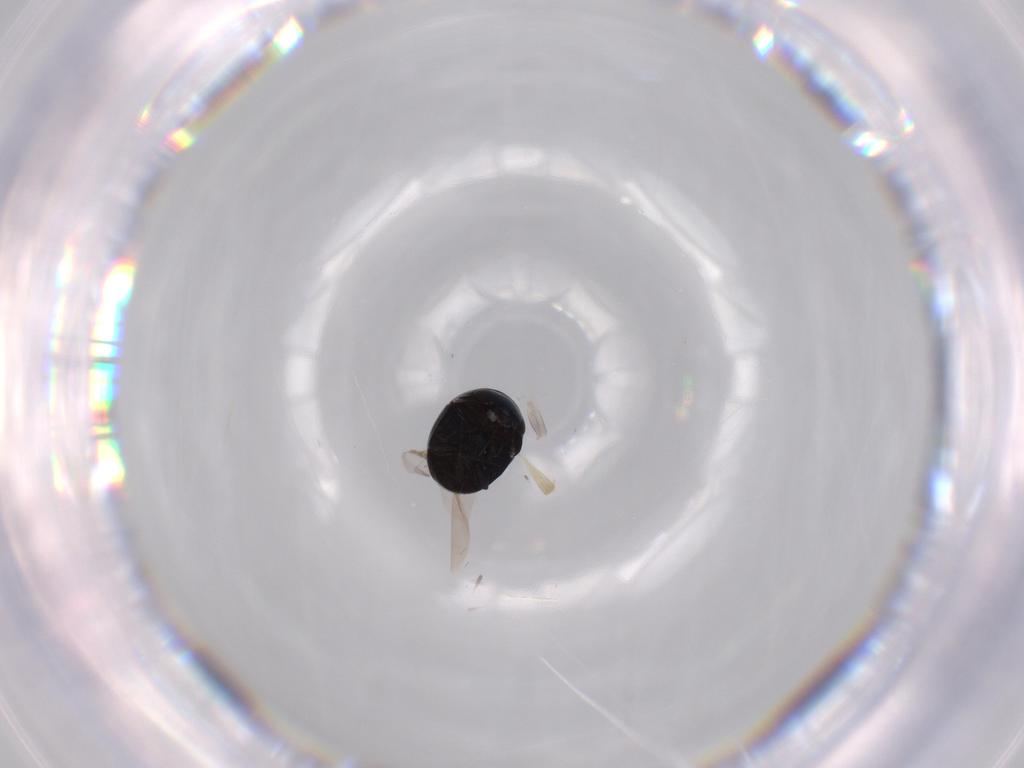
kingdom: Animalia
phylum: Arthropoda
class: Insecta
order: Coleoptera
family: Cybocephalidae
